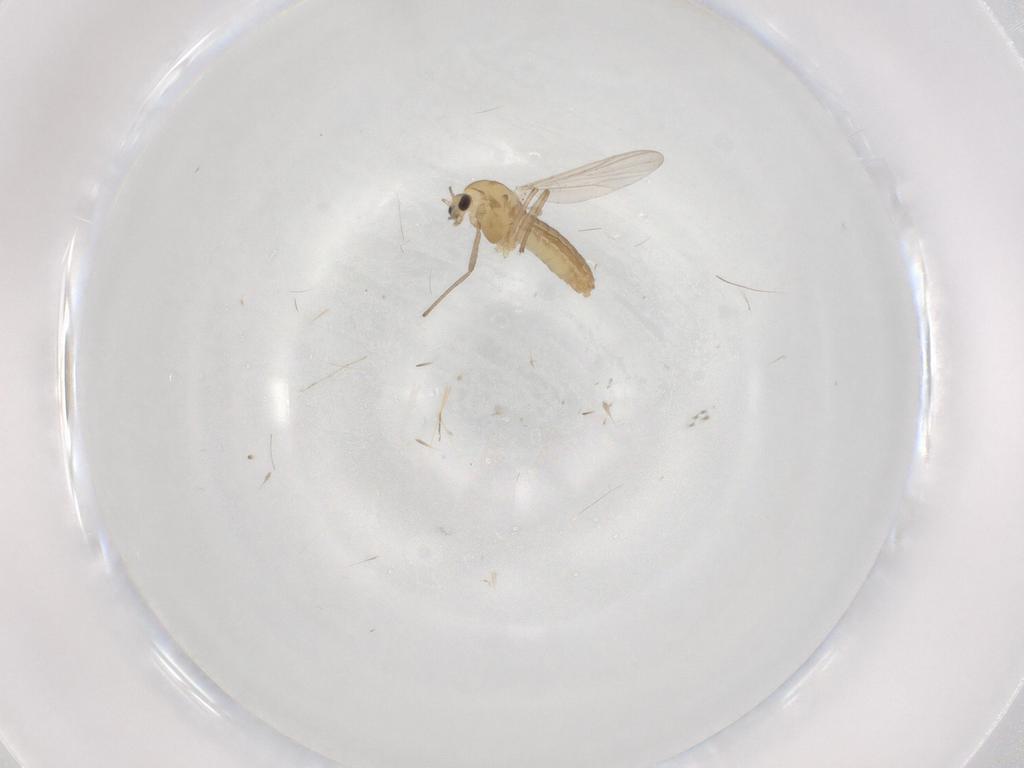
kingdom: Animalia
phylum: Arthropoda
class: Insecta
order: Diptera
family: Chironomidae
